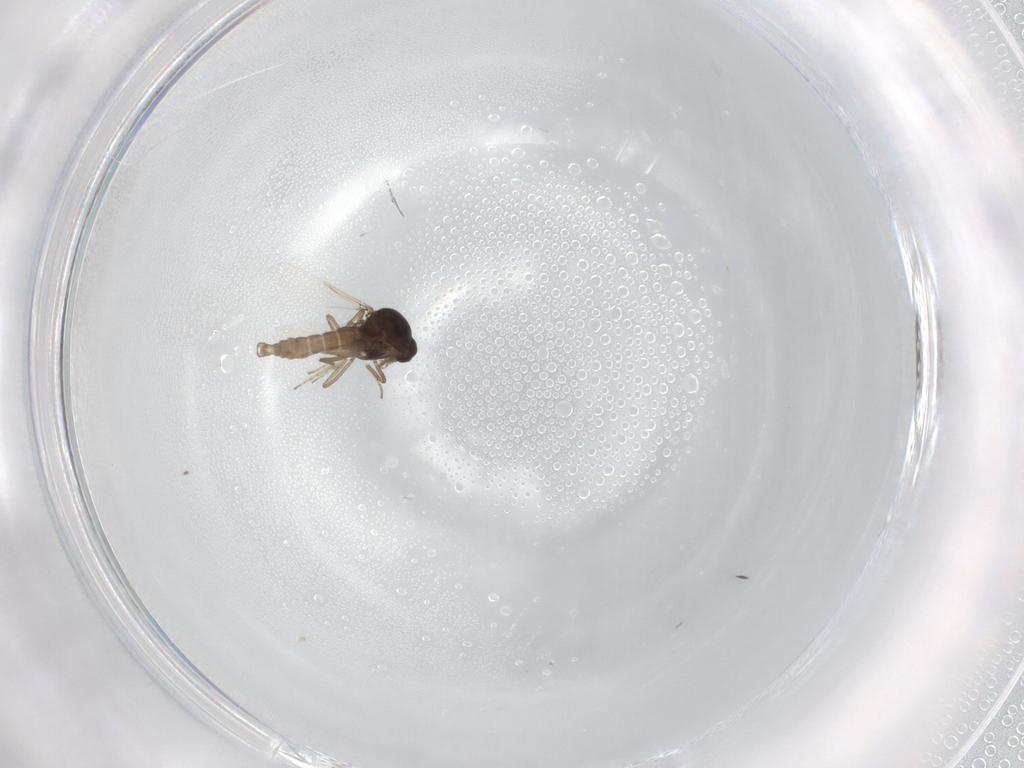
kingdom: Animalia
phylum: Arthropoda
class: Insecta
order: Diptera
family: Ceratopogonidae
